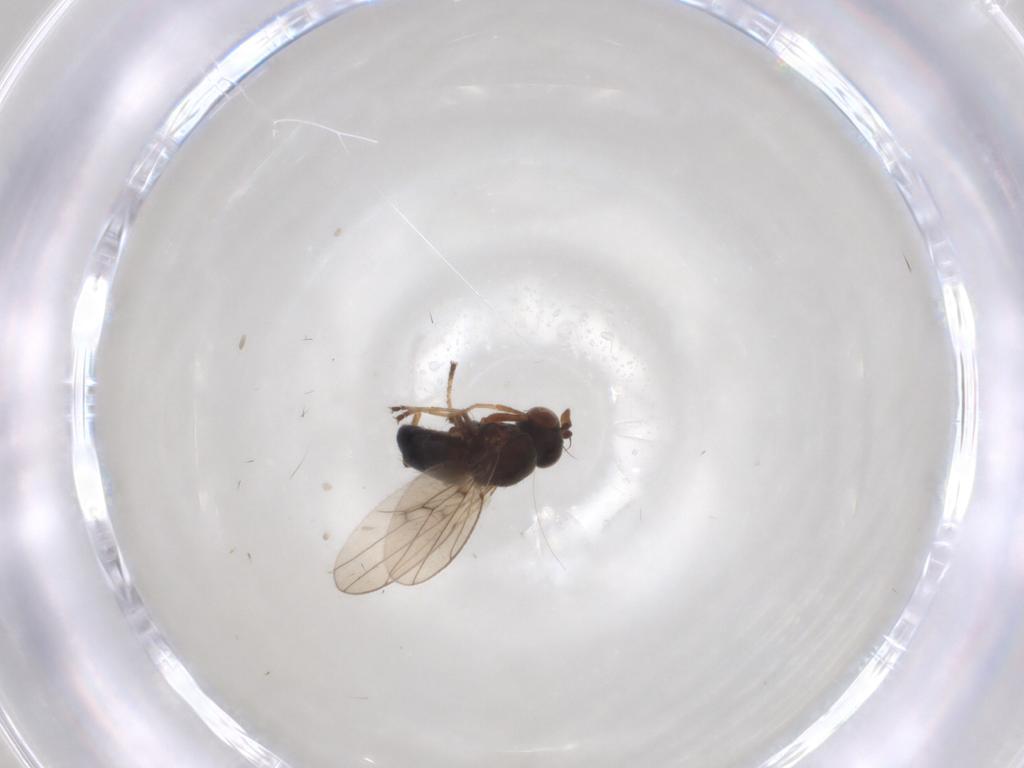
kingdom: Animalia
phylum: Arthropoda
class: Insecta
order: Diptera
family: Ephydridae
